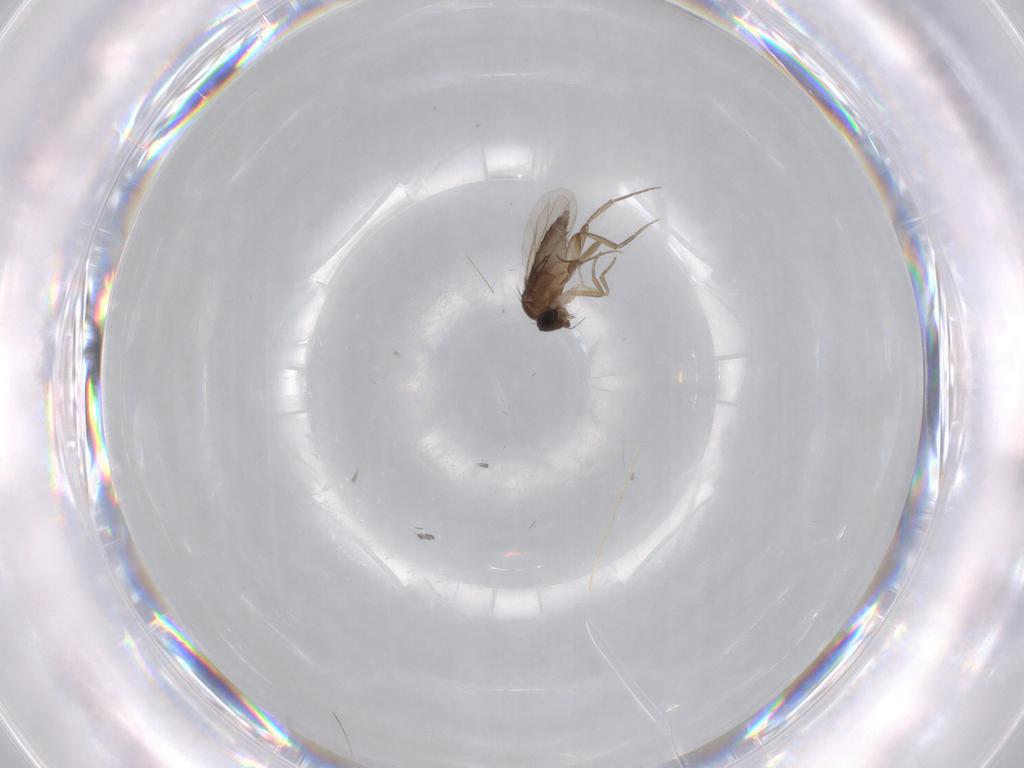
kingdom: Animalia
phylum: Arthropoda
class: Insecta
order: Diptera
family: Phoridae
